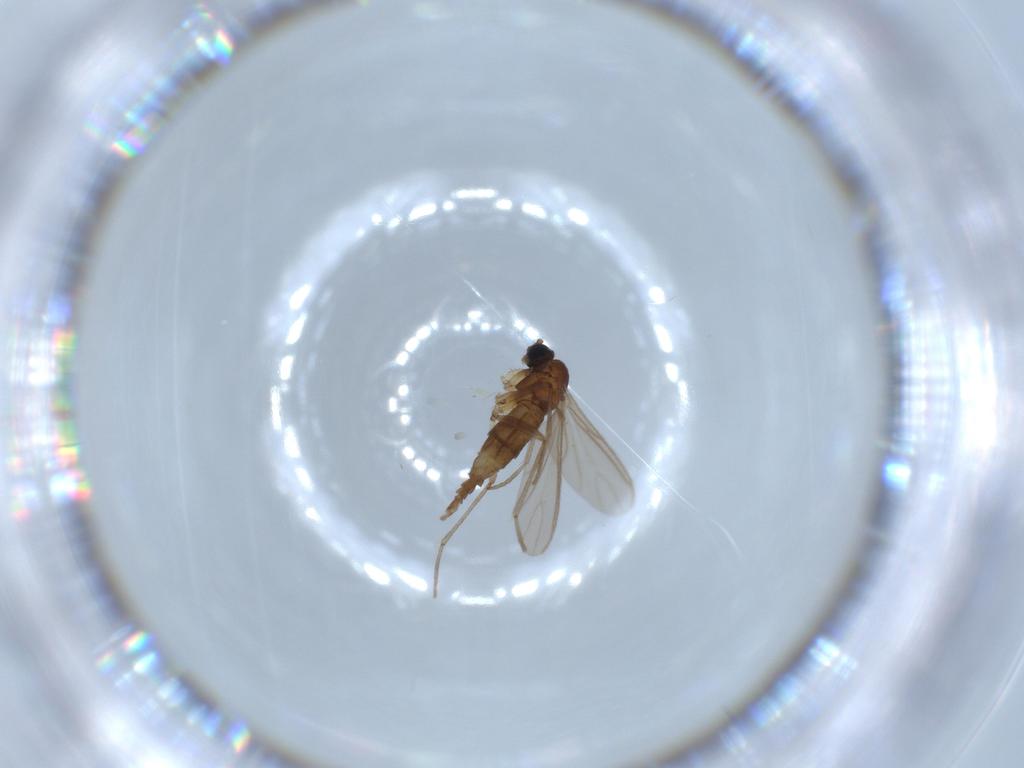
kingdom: Animalia
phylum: Arthropoda
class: Insecta
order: Diptera
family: Sciaridae
